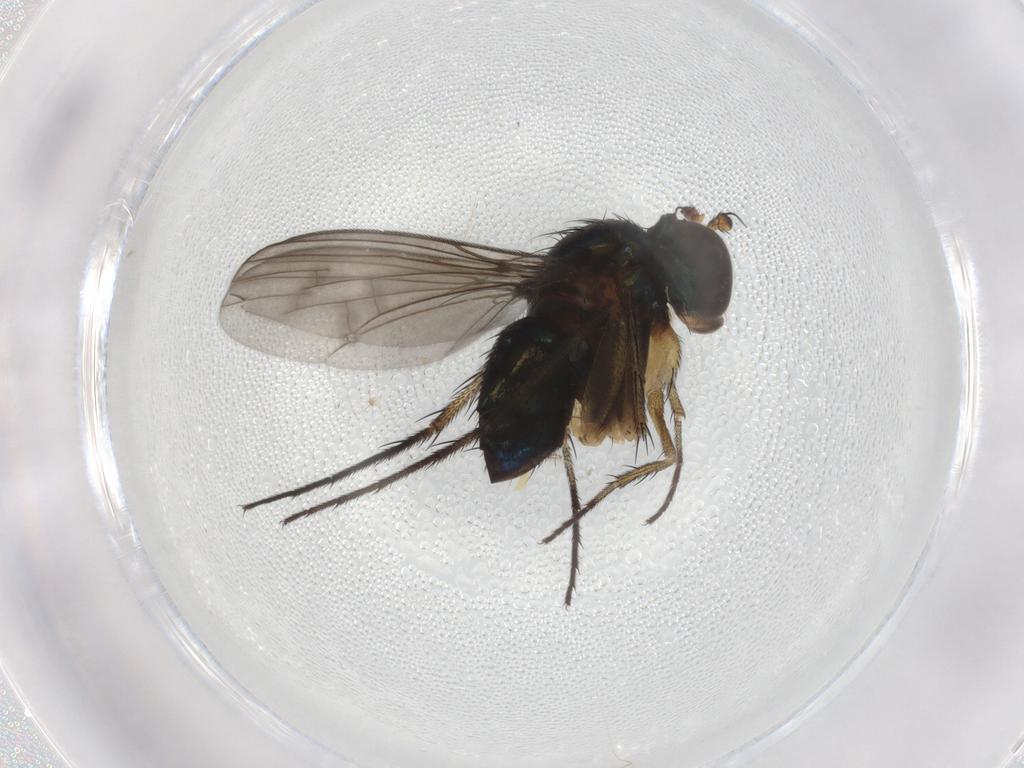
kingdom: Animalia
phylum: Arthropoda
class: Insecta
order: Diptera
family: Dolichopodidae
